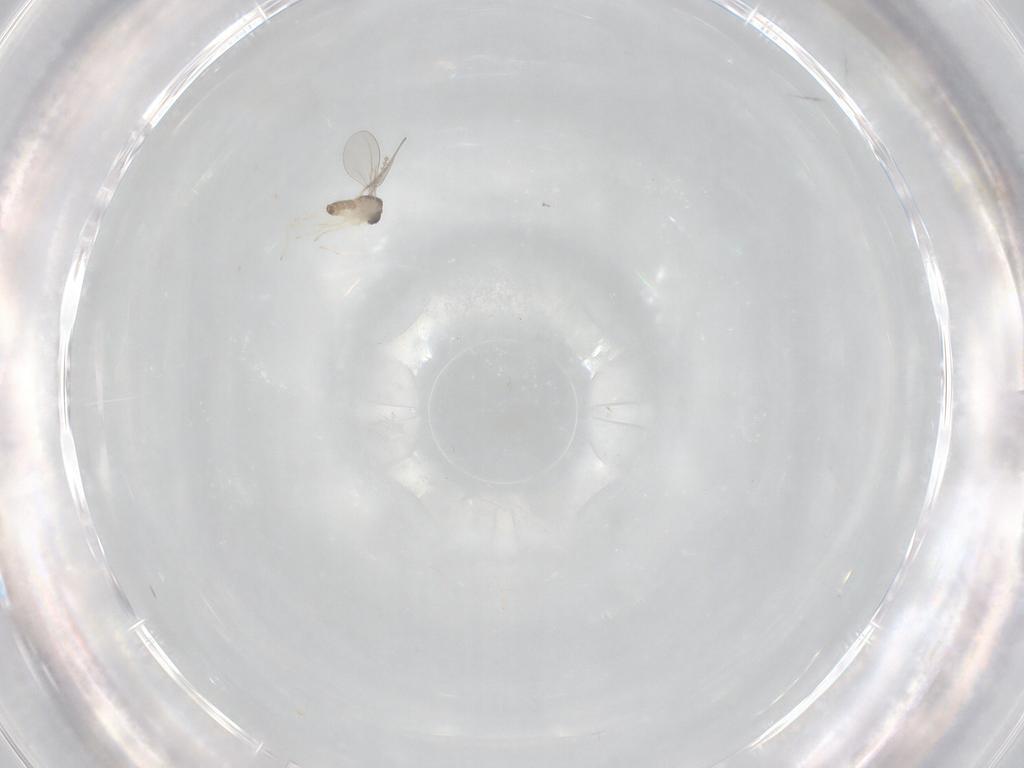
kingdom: Animalia
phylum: Arthropoda
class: Insecta
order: Diptera
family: Cecidomyiidae
